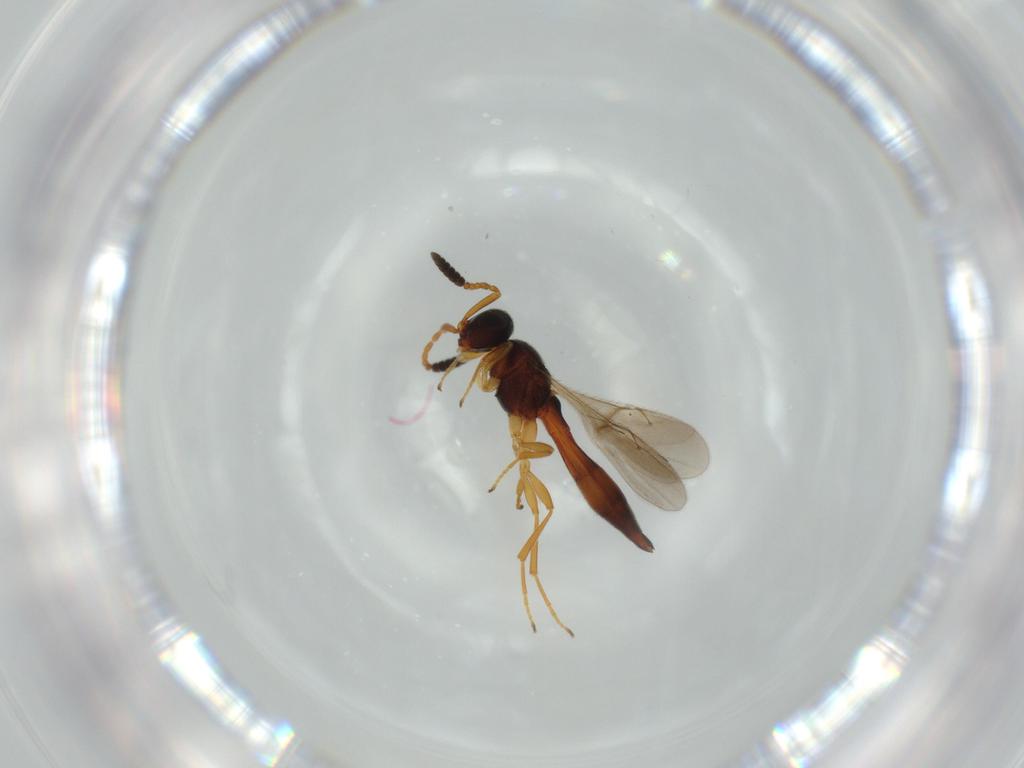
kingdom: Animalia
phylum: Arthropoda
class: Insecta
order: Hymenoptera
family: Scelionidae
